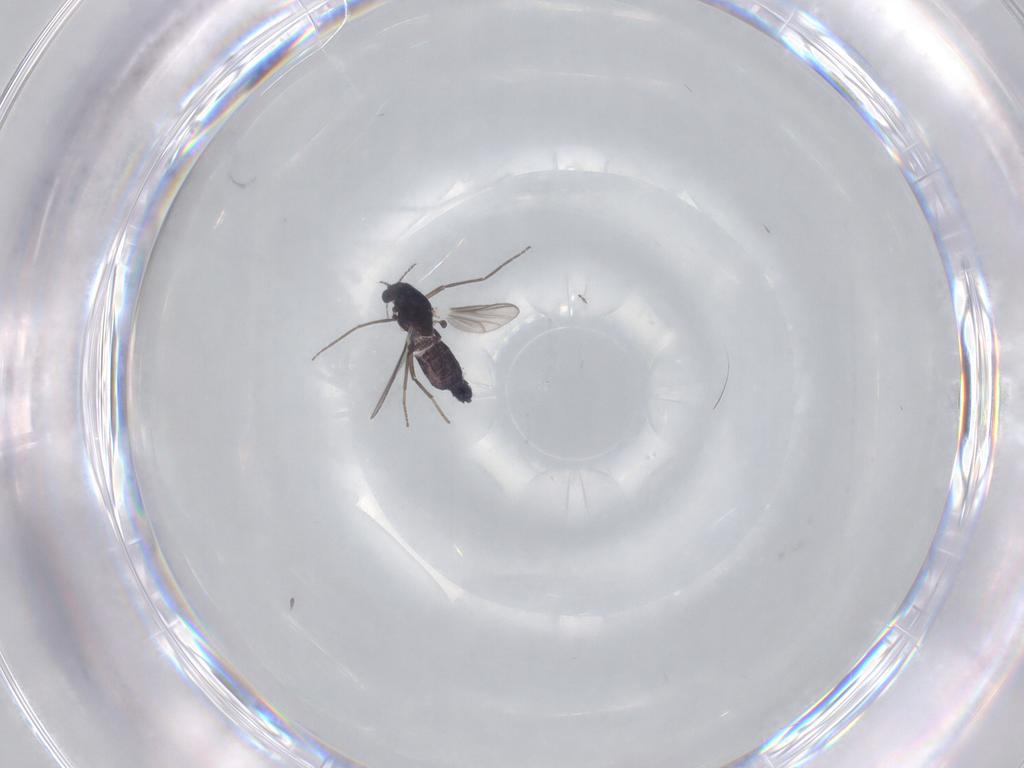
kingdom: Animalia
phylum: Arthropoda
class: Insecta
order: Diptera
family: Chironomidae
